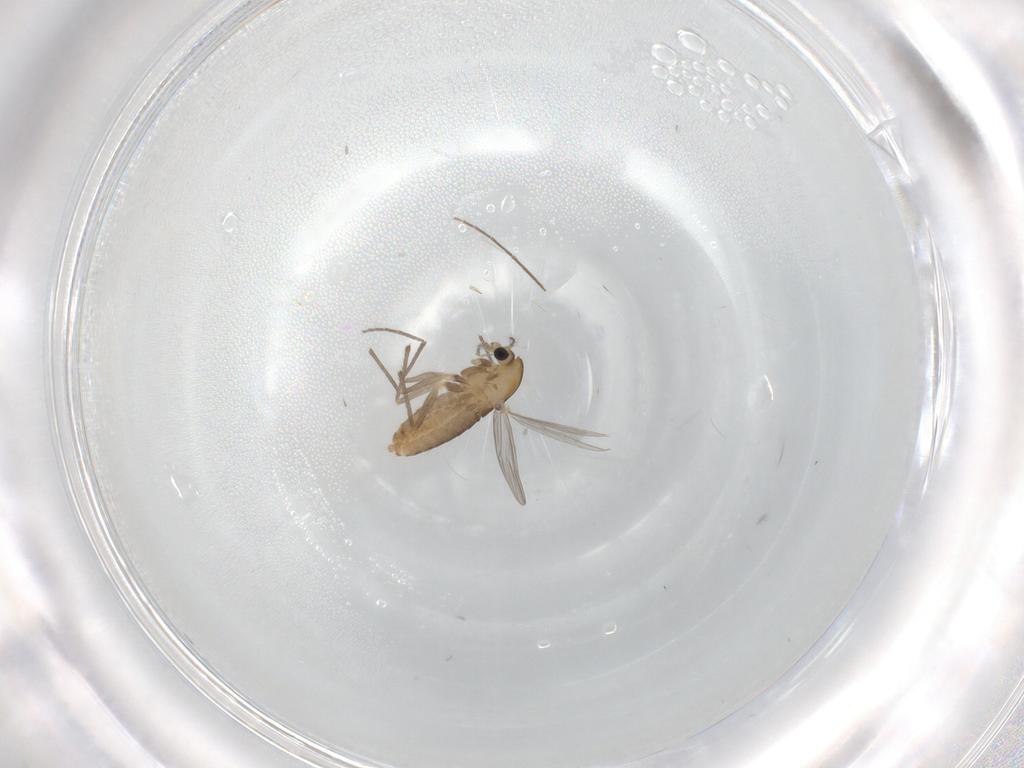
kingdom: Animalia
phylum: Arthropoda
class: Insecta
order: Diptera
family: Chironomidae
